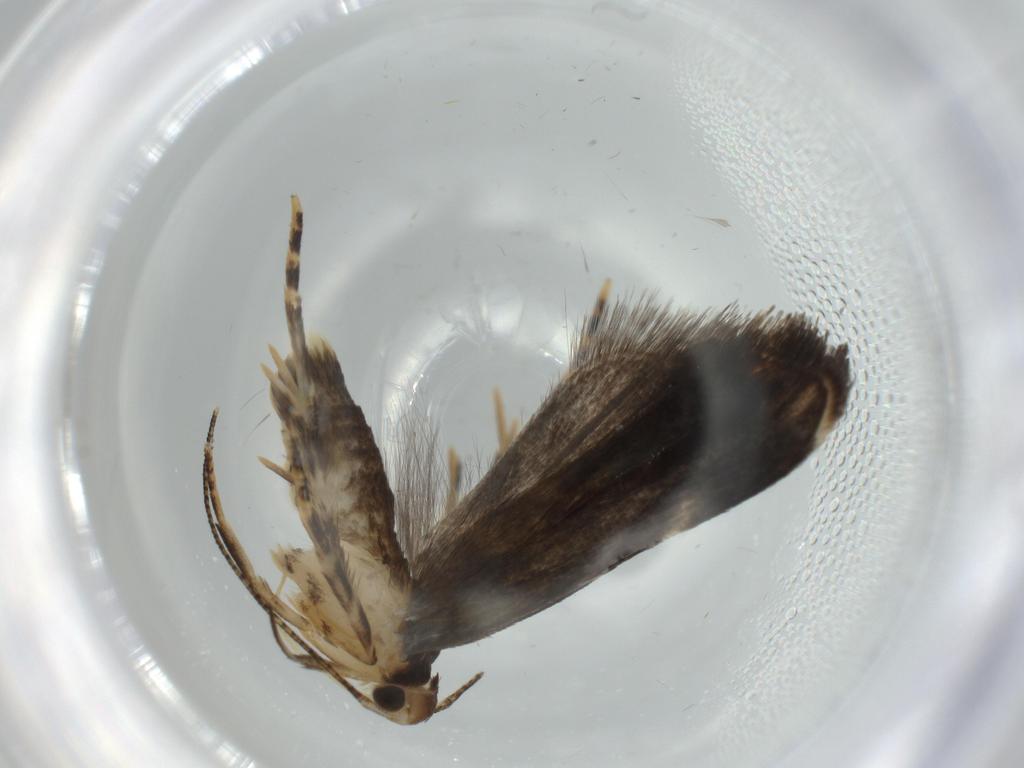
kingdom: Animalia
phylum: Arthropoda
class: Insecta
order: Lepidoptera
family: Coleophoridae
